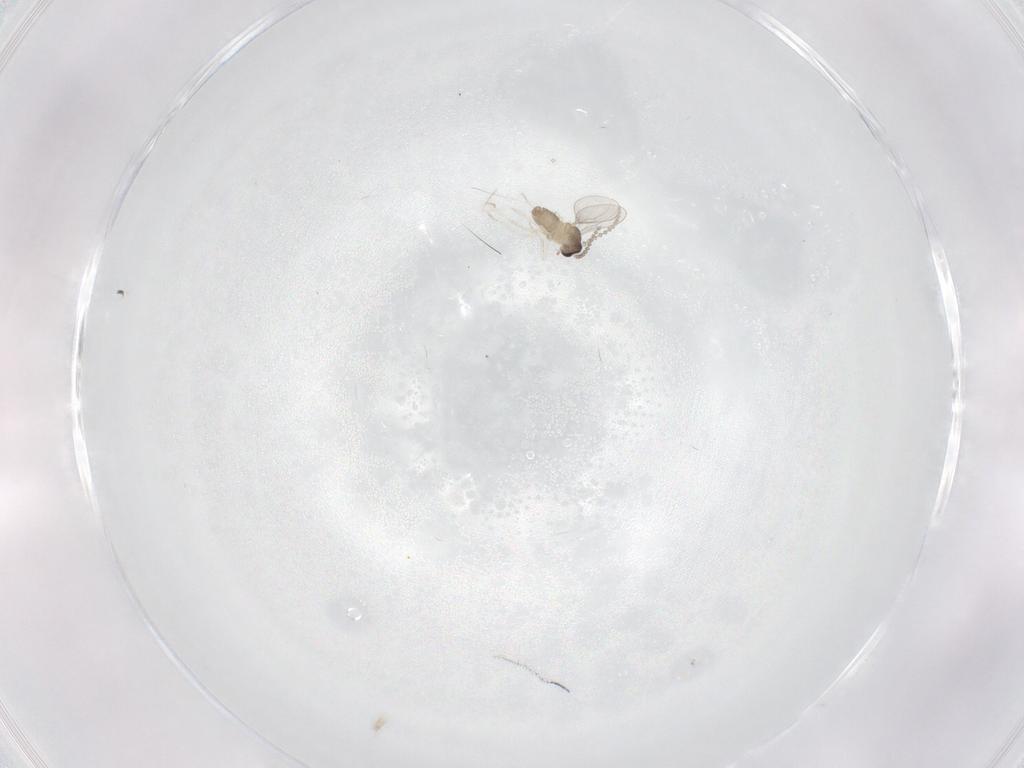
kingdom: Animalia
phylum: Arthropoda
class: Insecta
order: Diptera
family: Cecidomyiidae
